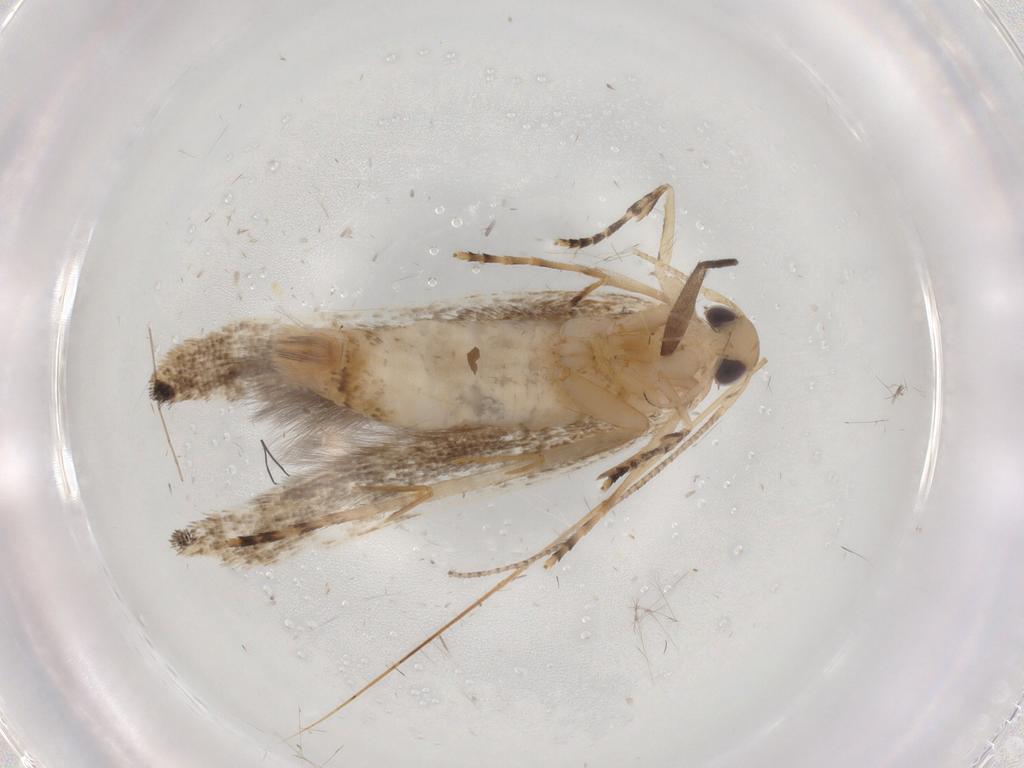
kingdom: Animalia
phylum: Arthropoda
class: Insecta
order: Lepidoptera
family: Cosmopterigidae
